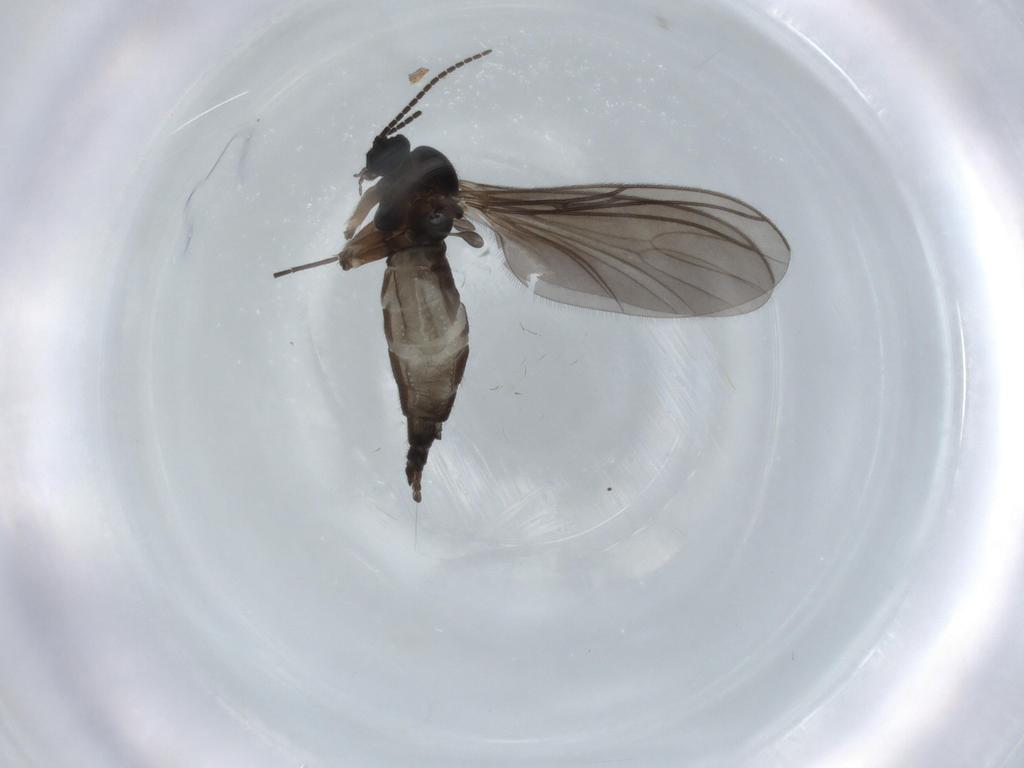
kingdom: Animalia
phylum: Arthropoda
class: Insecta
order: Diptera
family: Sciaridae
